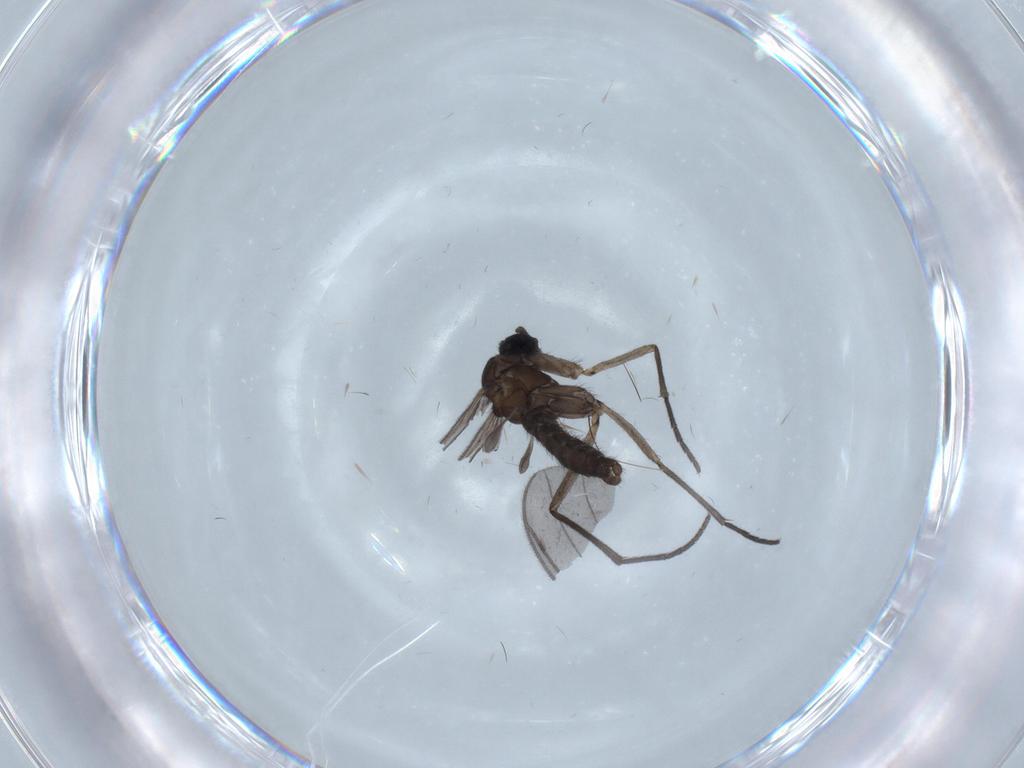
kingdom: Animalia
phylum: Arthropoda
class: Insecta
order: Diptera
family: Sciaridae
